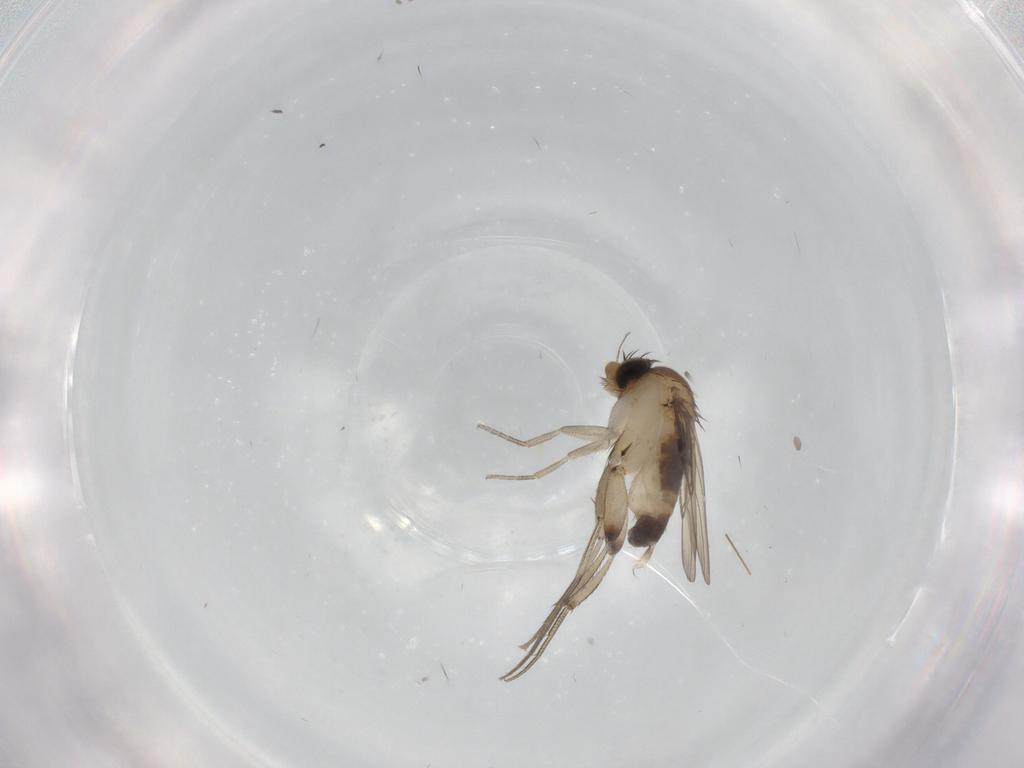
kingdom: Animalia
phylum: Arthropoda
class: Insecta
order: Diptera
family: Phoridae
